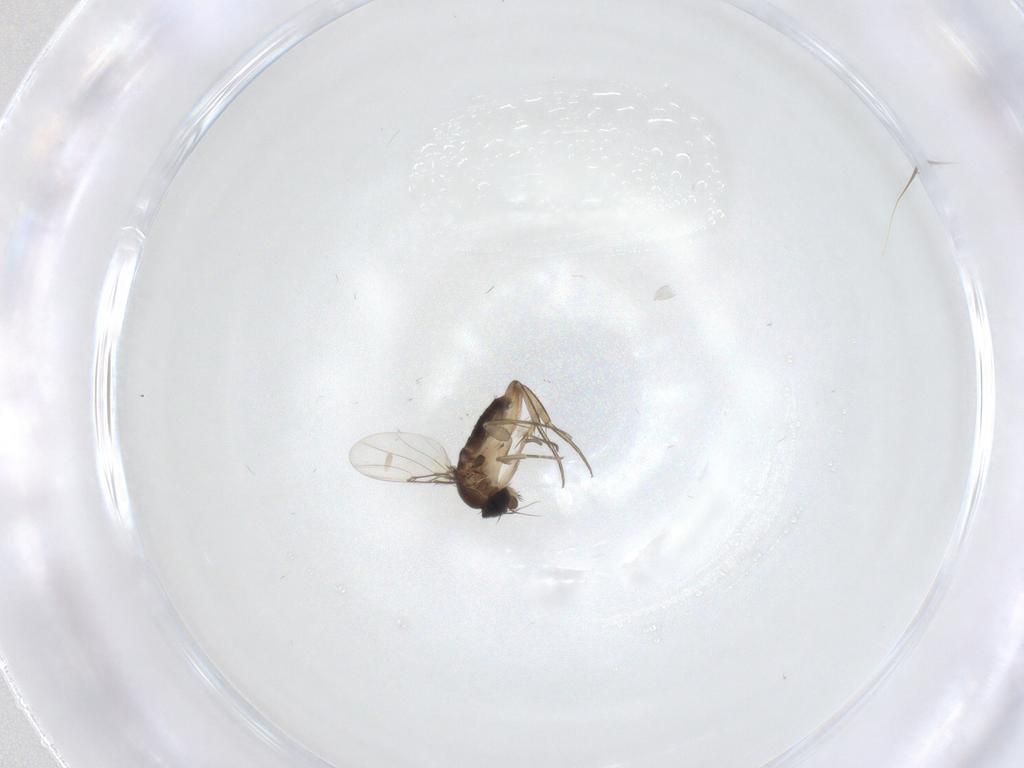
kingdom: Animalia
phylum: Arthropoda
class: Insecta
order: Diptera
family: Phoridae
